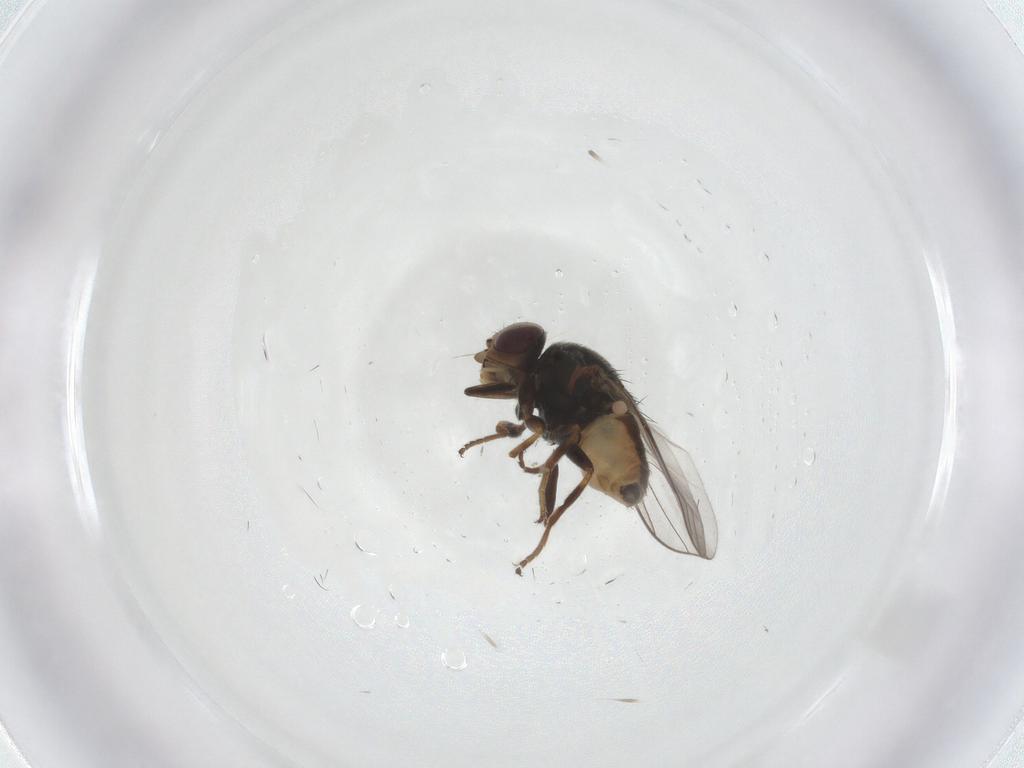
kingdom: Animalia
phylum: Arthropoda
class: Insecta
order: Diptera
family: Chloropidae
